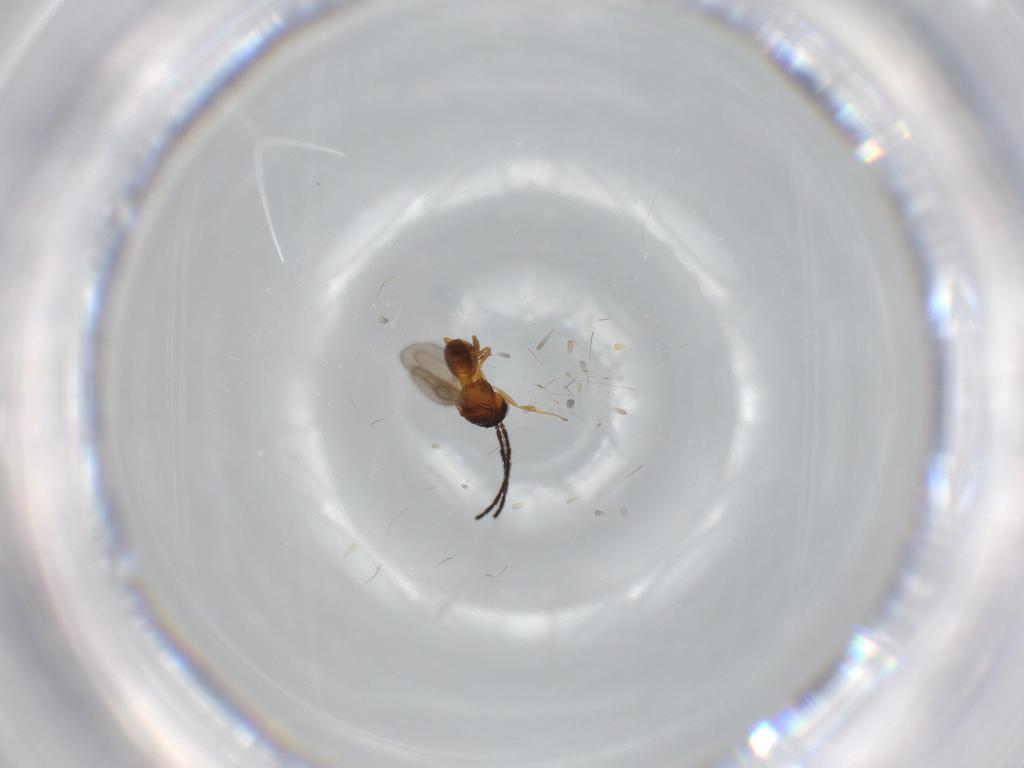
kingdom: Animalia
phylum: Arthropoda
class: Insecta
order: Hymenoptera
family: Scelionidae
